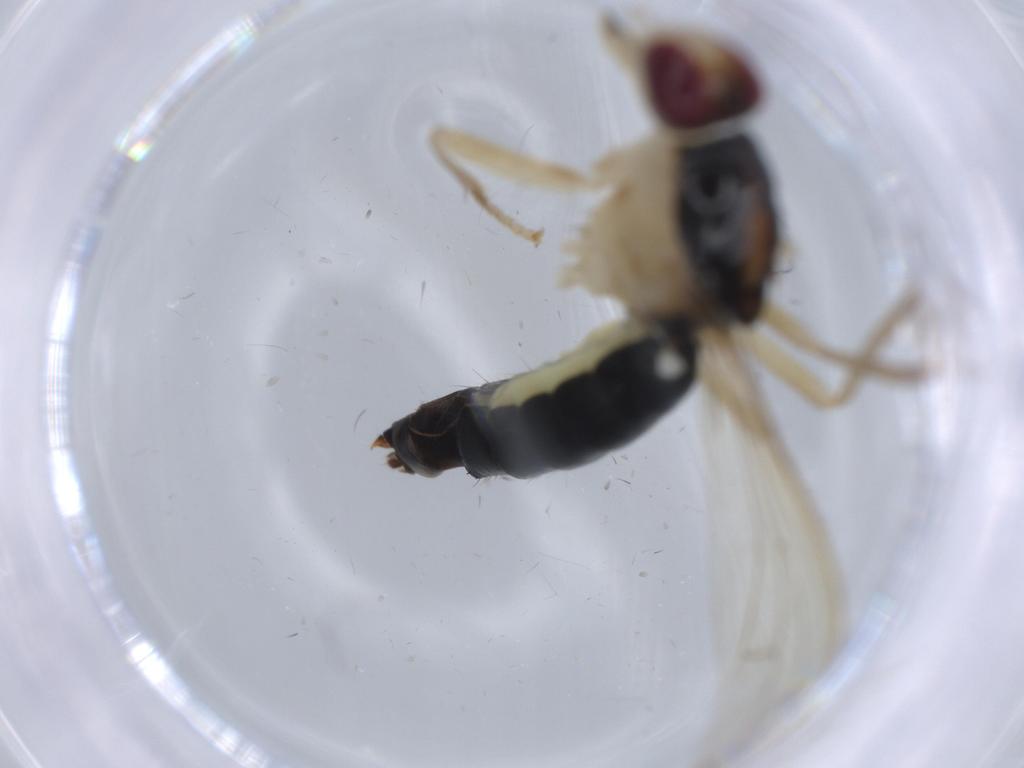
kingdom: Animalia
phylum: Arthropoda
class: Insecta
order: Diptera
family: Scathophagidae
